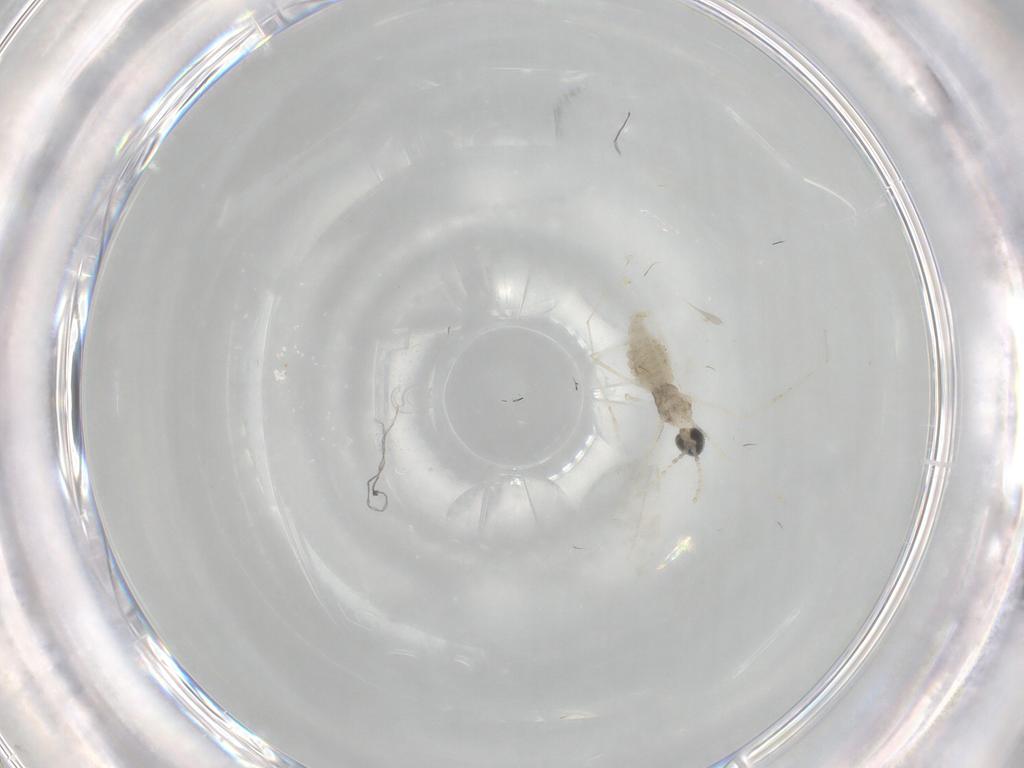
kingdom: Animalia
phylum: Arthropoda
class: Insecta
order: Diptera
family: Cecidomyiidae
